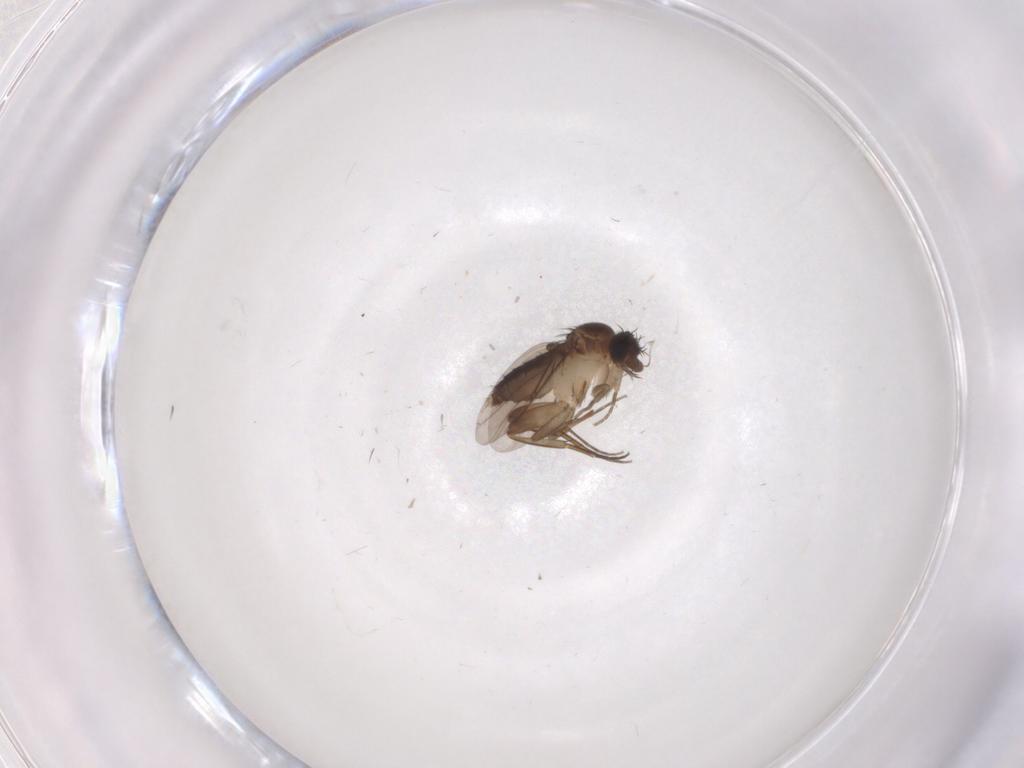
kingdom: Animalia
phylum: Arthropoda
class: Insecta
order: Diptera
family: Phoridae
